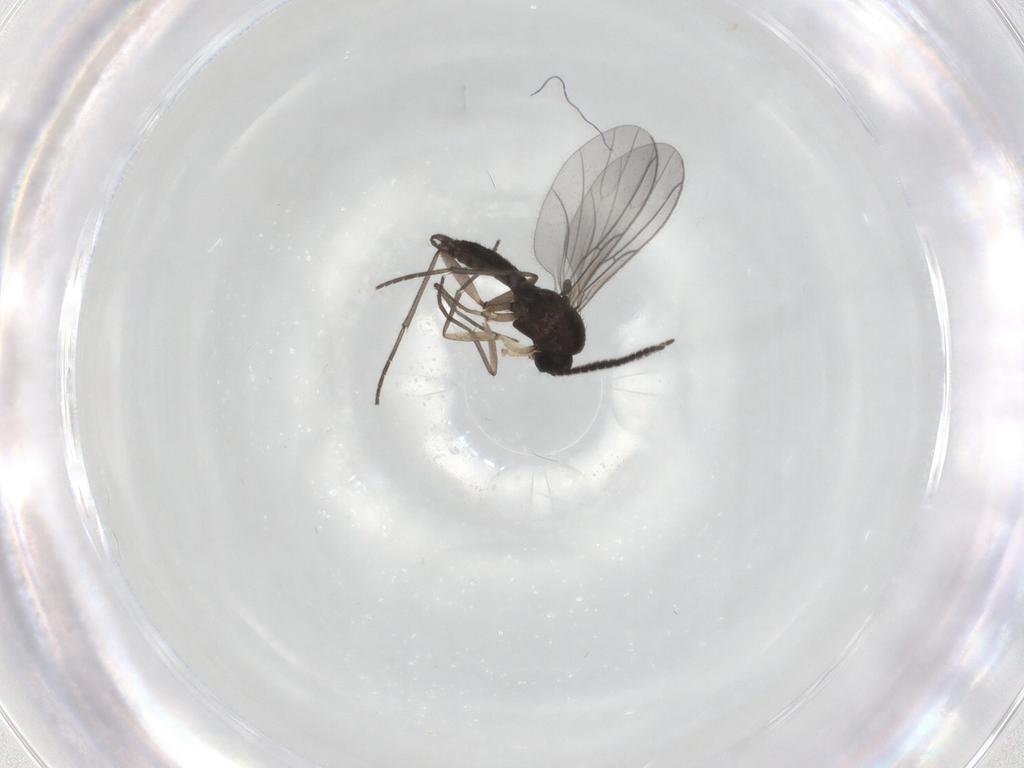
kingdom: Animalia
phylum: Arthropoda
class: Insecta
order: Diptera
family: Sciaridae
